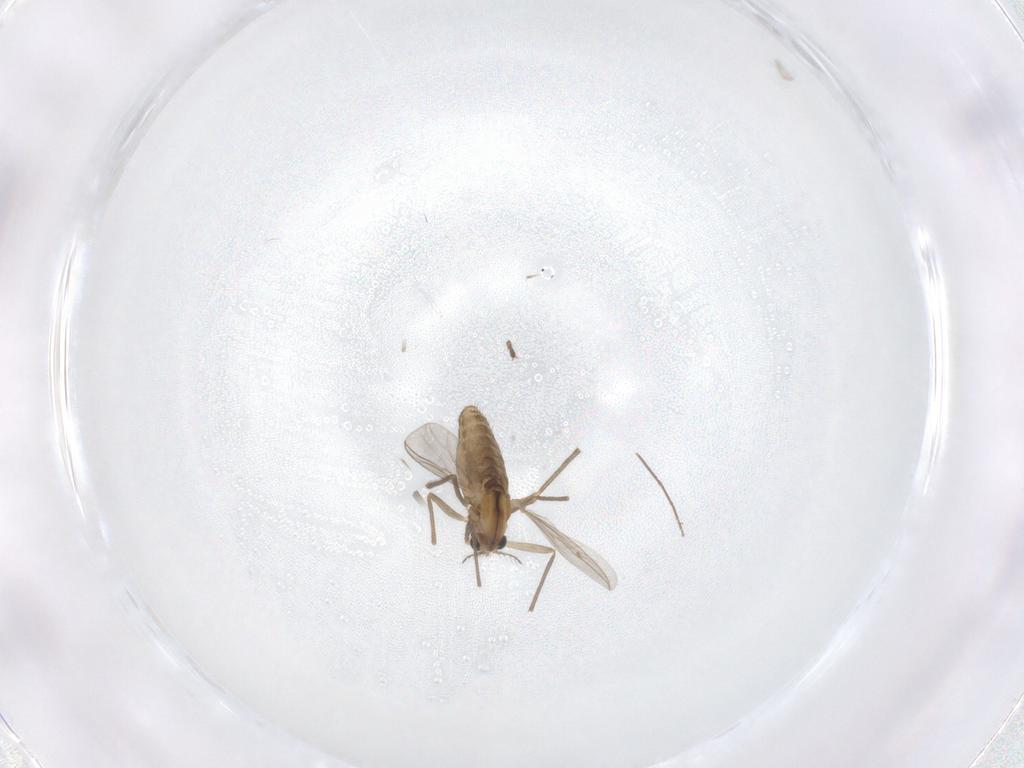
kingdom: Animalia
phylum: Arthropoda
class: Insecta
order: Diptera
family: Chironomidae
